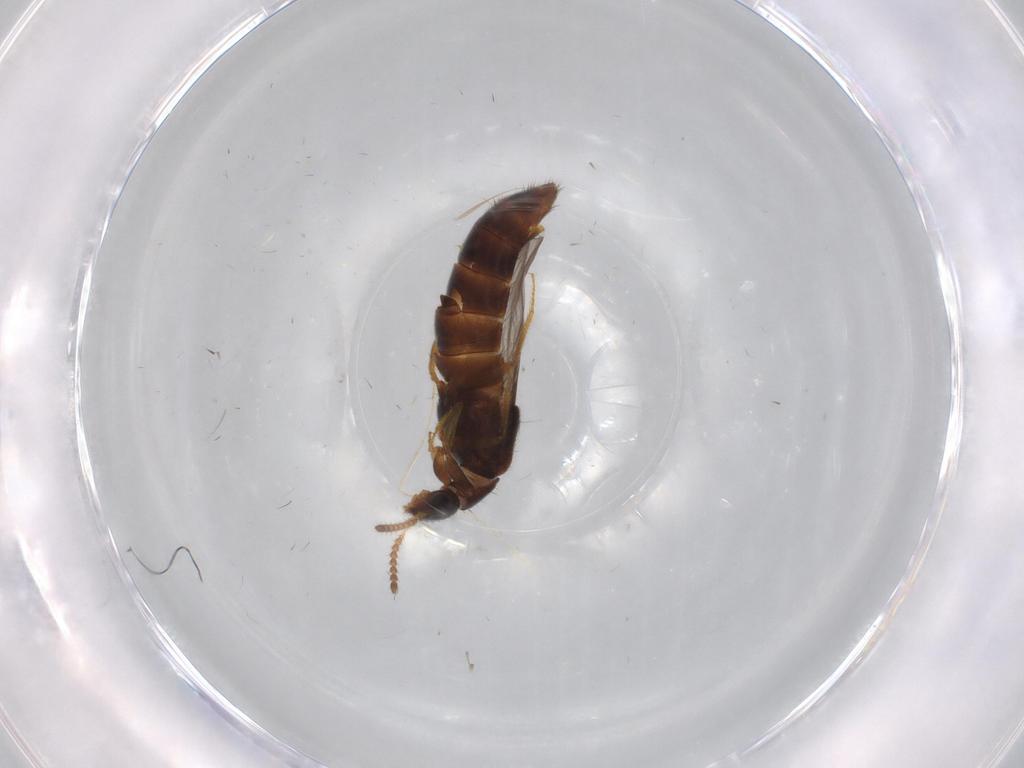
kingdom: Animalia
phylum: Arthropoda
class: Insecta
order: Coleoptera
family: Staphylinidae
